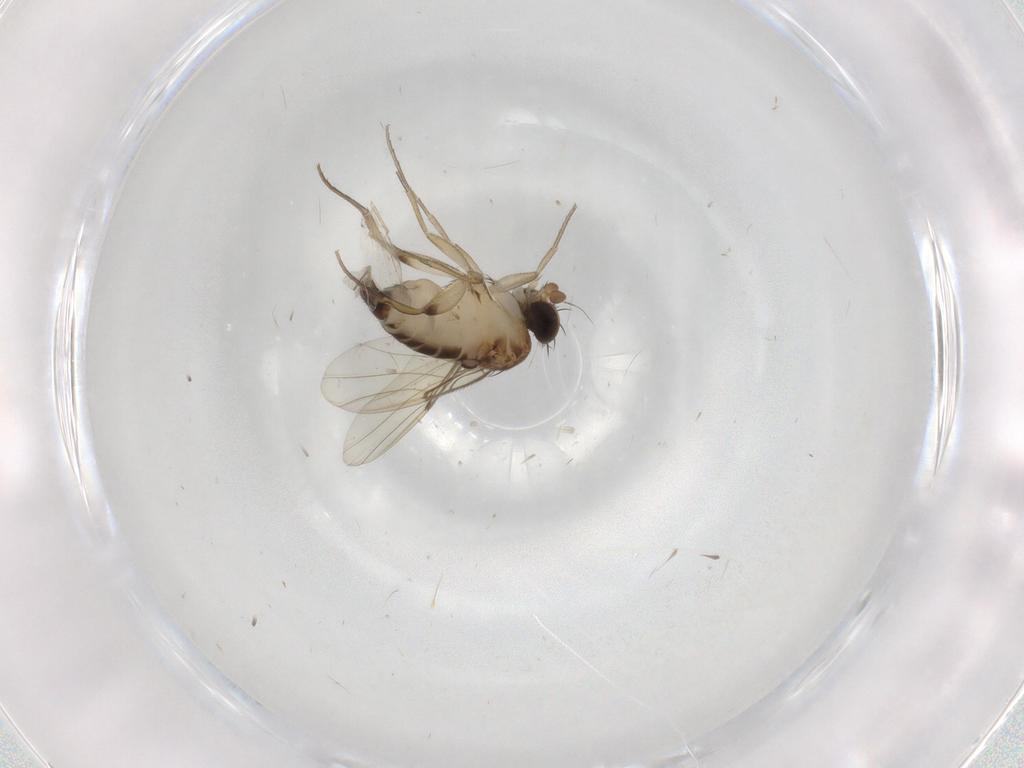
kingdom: Animalia
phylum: Arthropoda
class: Insecta
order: Diptera
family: Phoridae
